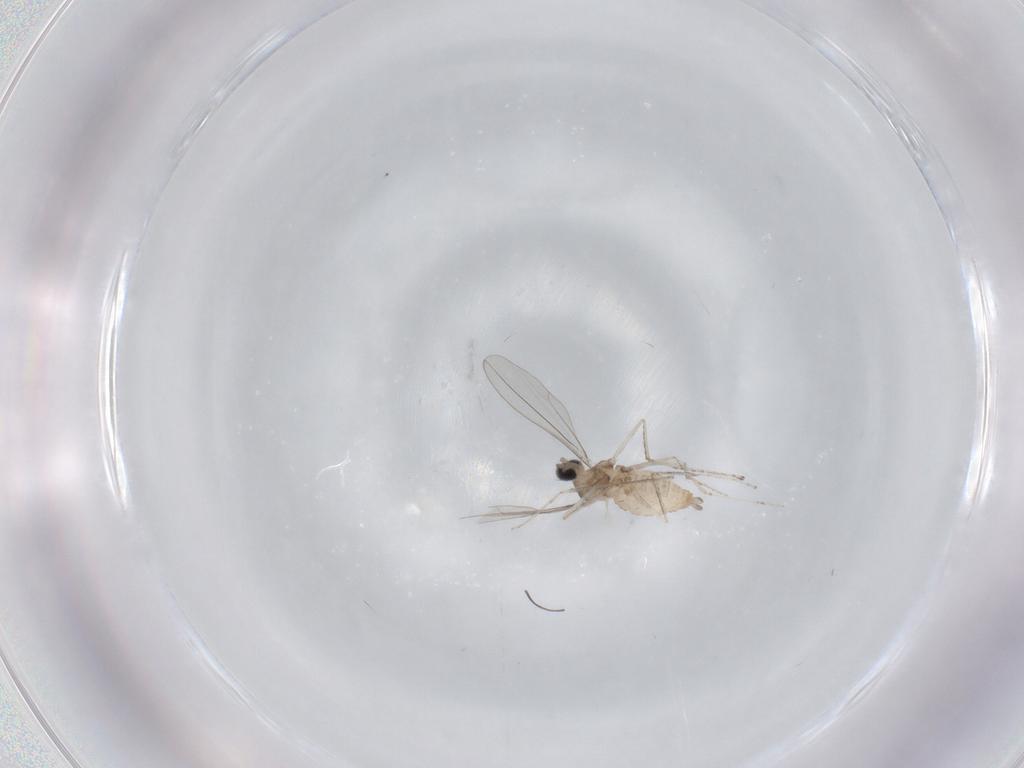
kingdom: Animalia
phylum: Arthropoda
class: Insecta
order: Diptera
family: Cecidomyiidae
